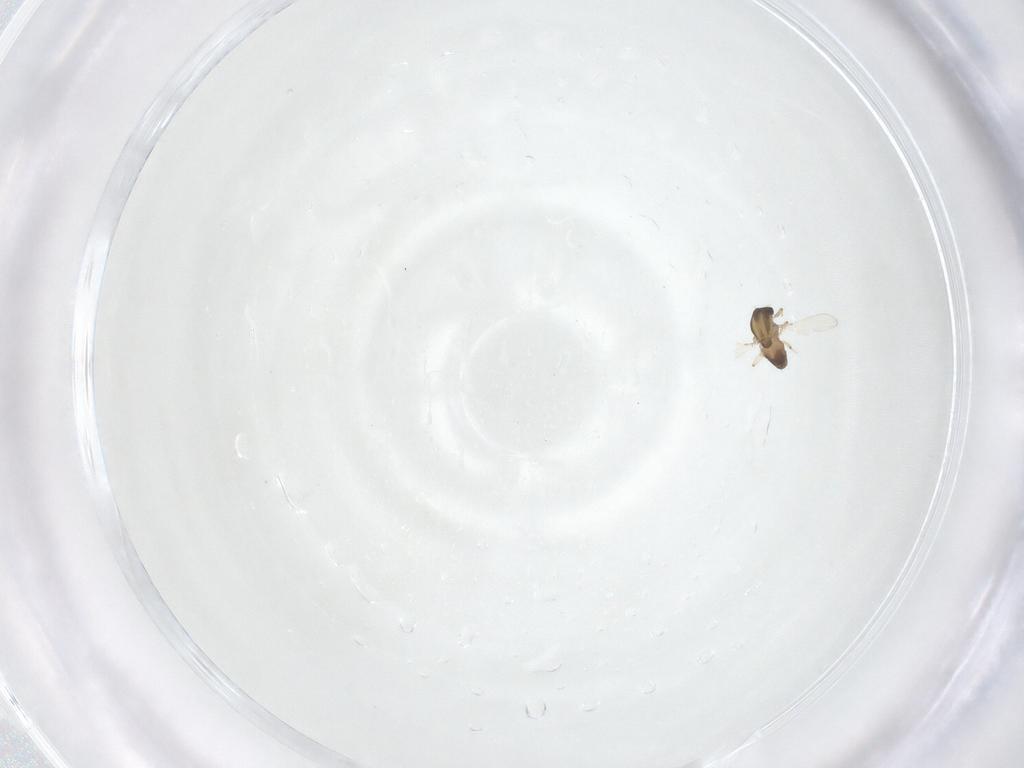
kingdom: Animalia
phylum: Arthropoda
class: Insecta
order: Diptera
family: Chironomidae
